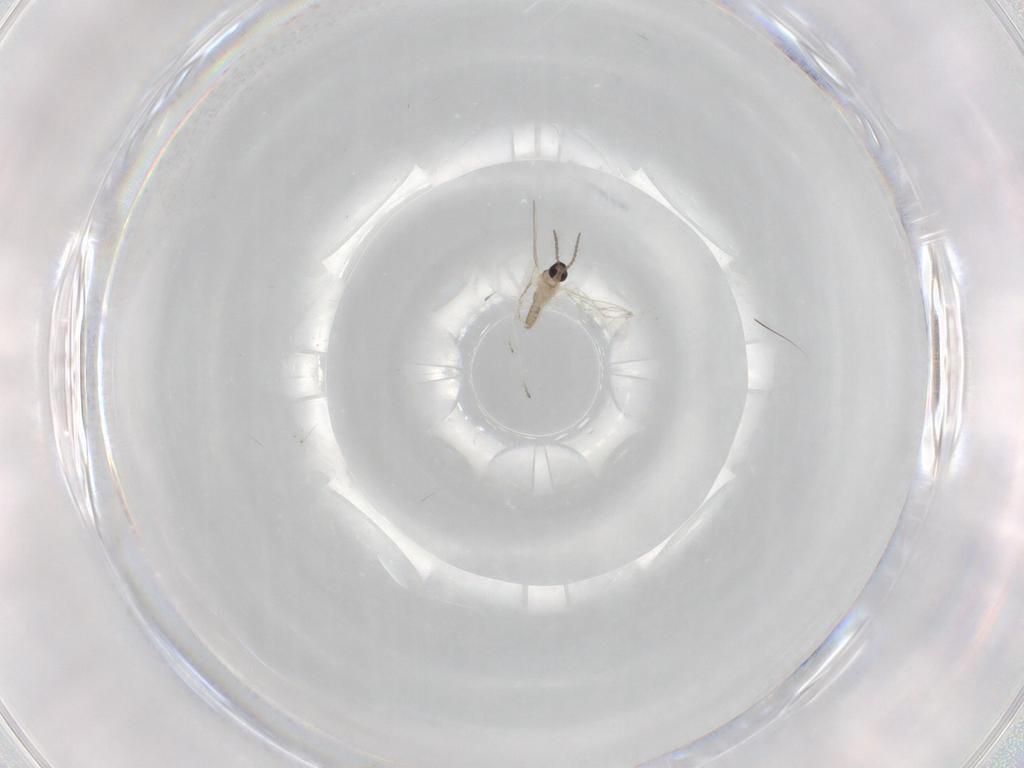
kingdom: Animalia
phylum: Arthropoda
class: Insecta
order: Diptera
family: Cecidomyiidae
